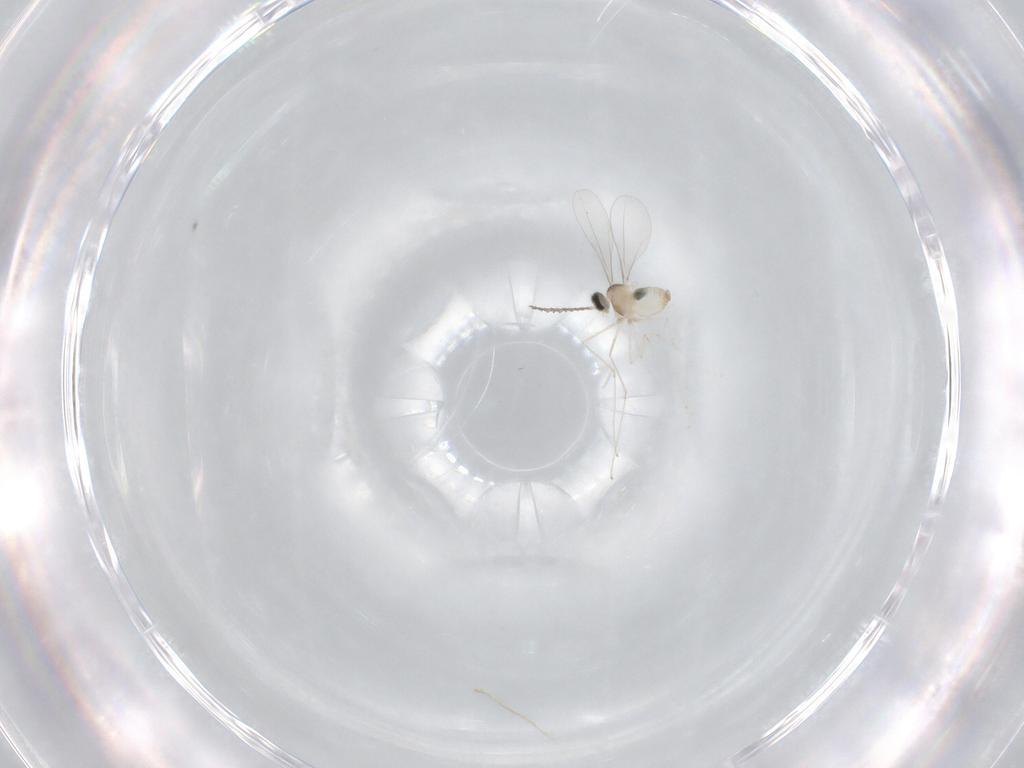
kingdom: Animalia
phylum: Arthropoda
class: Insecta
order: Diptera
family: Cecidomyiidae
